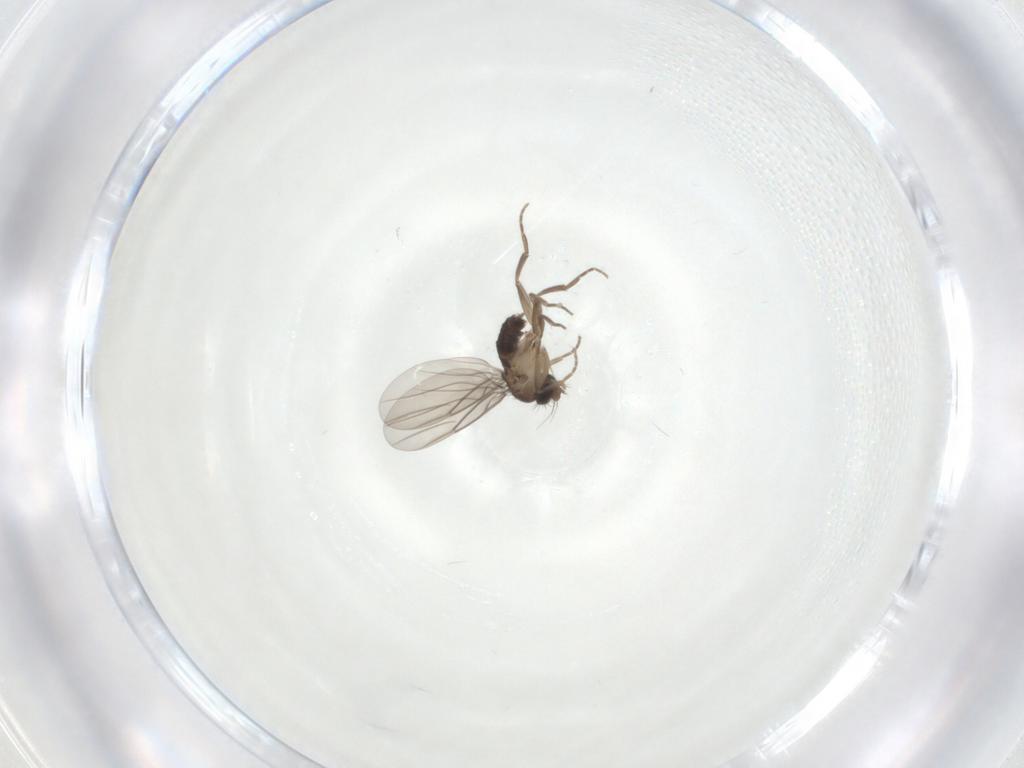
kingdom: Animalia
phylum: Arthropoda
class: Insecta
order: Diptera
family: Phoridae
